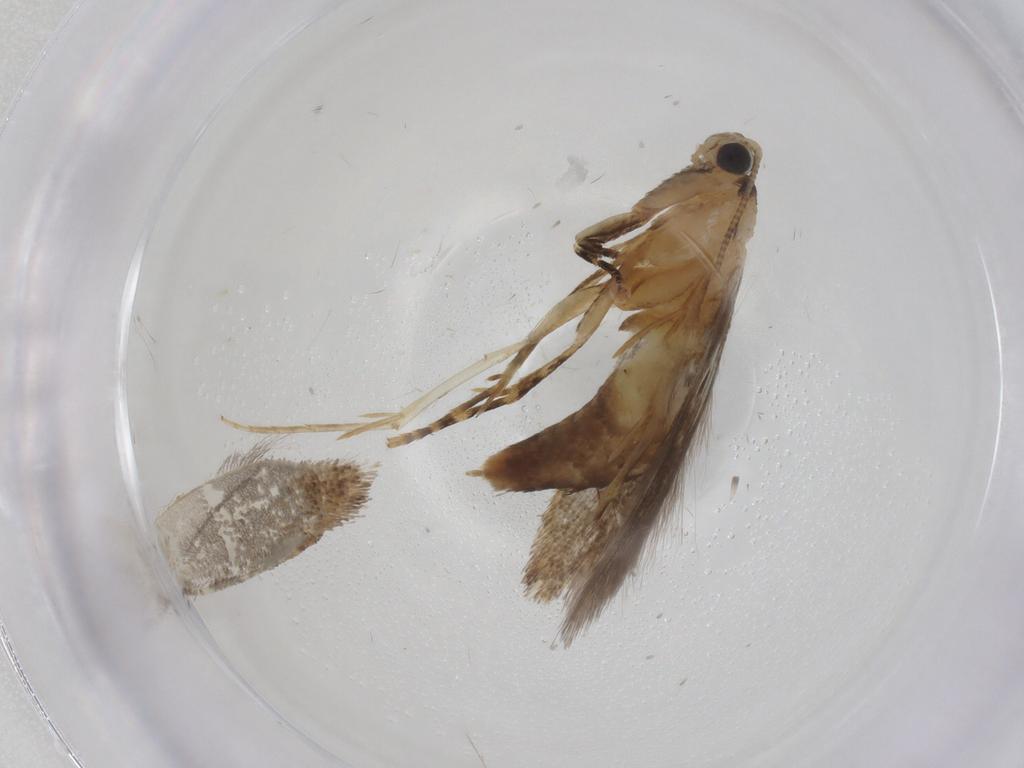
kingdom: Animalia
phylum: Arthropoda
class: Insecta
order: Lepidoptera
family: Tineidae
